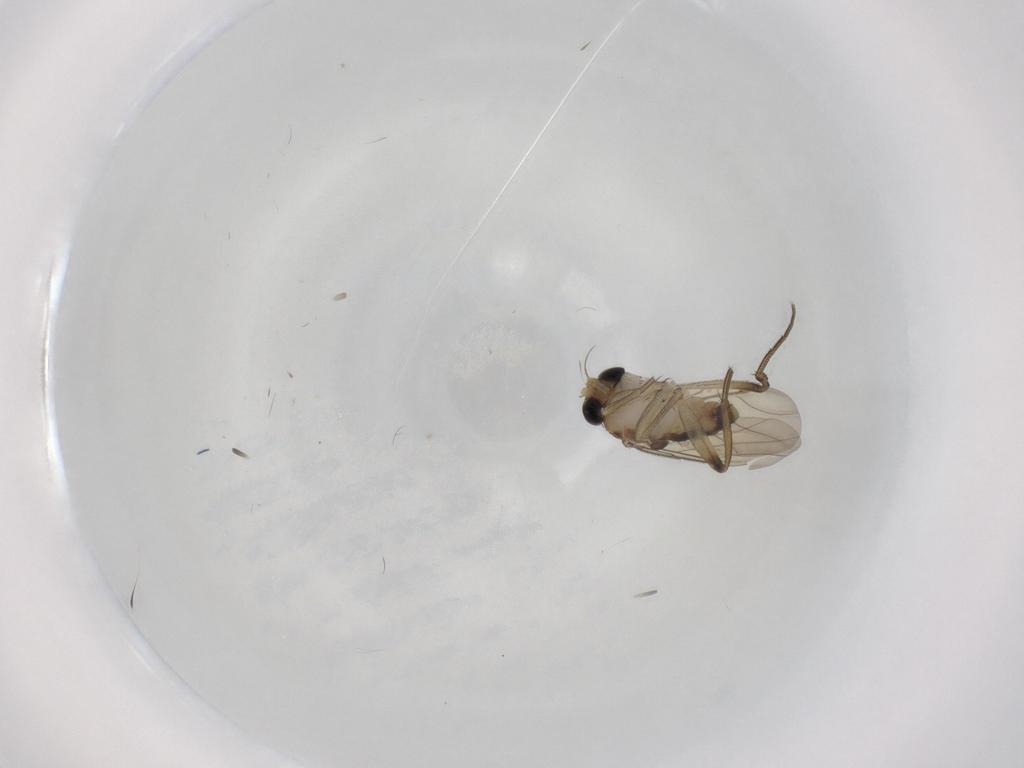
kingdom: Animalia
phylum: Arthropoda
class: Insecta
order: Diptera
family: Phoridae
